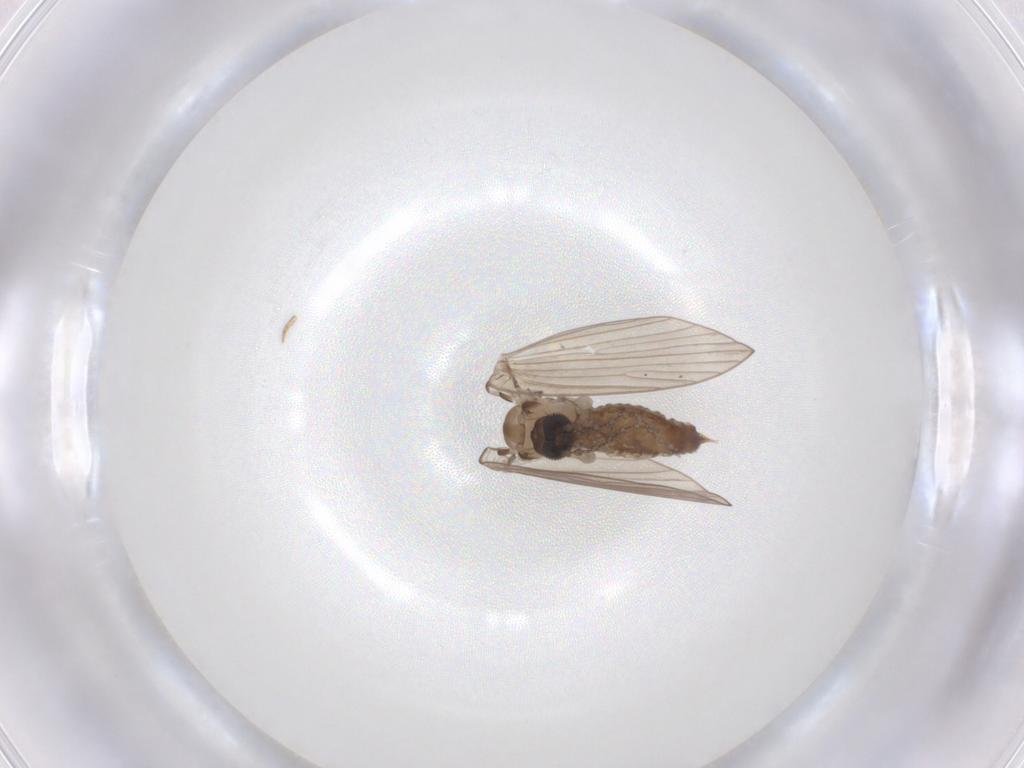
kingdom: Animalia
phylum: Arthropoda
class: Insecta
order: Diptera
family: Psychodidae
